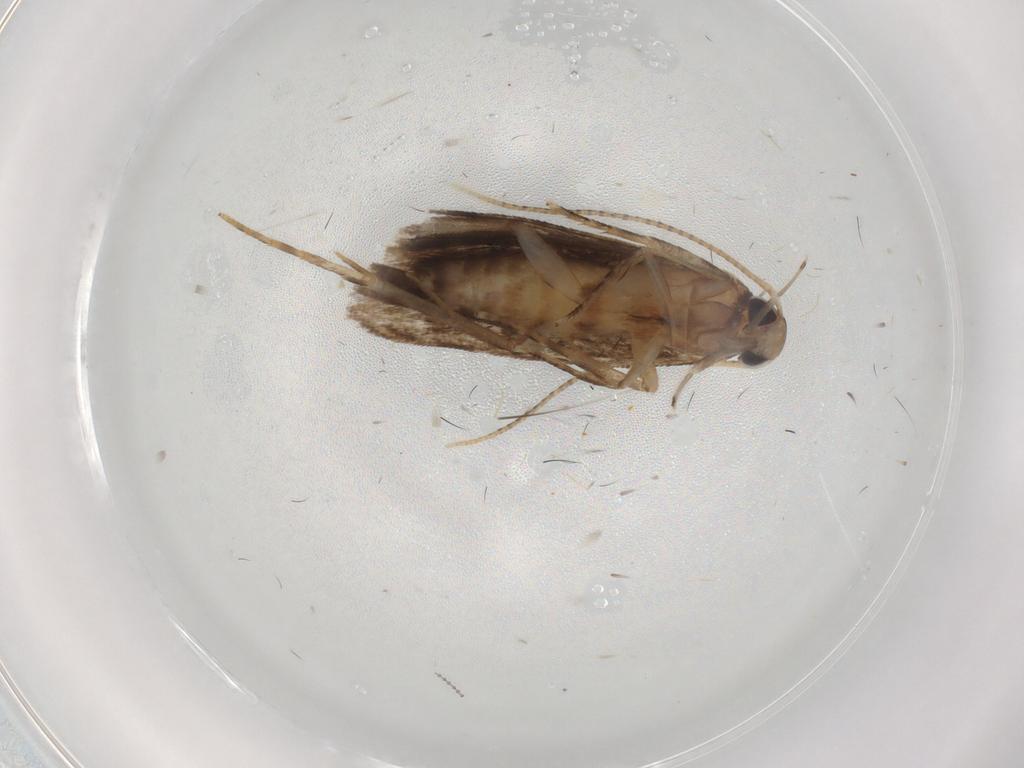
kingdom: Animalia
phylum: Arthropoda
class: Insecta
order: Lepidoptera
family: Gelechiidae
